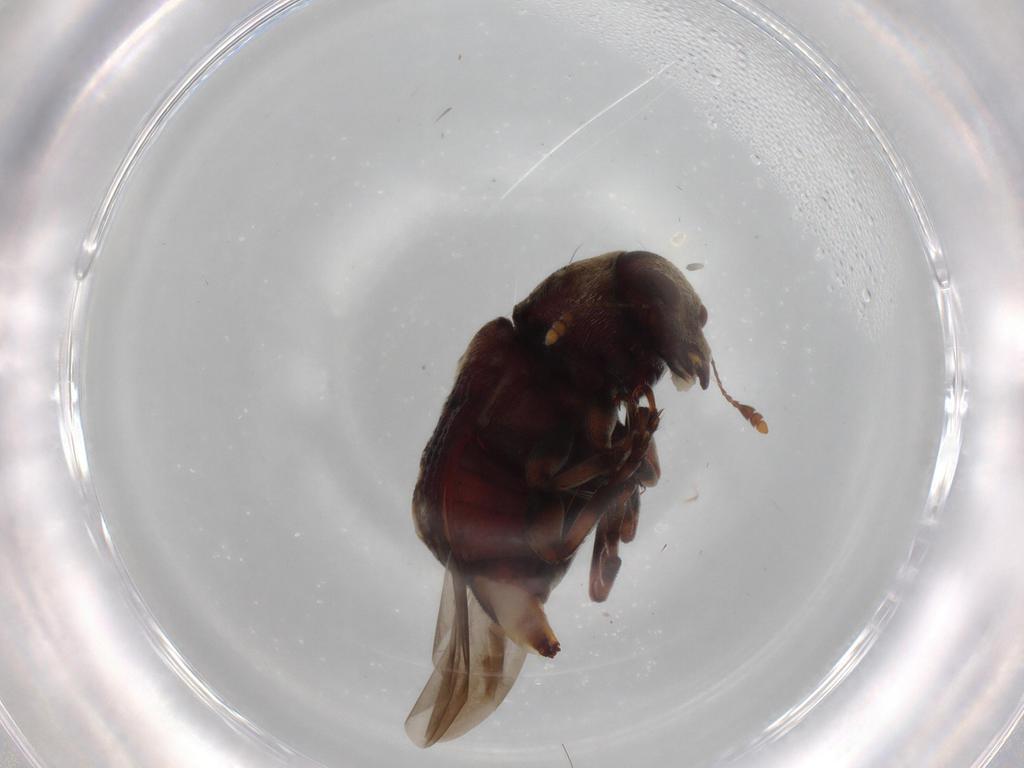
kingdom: Animalia
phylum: Arthropoda
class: Insecta
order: Coleoptera
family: Anthribidae
